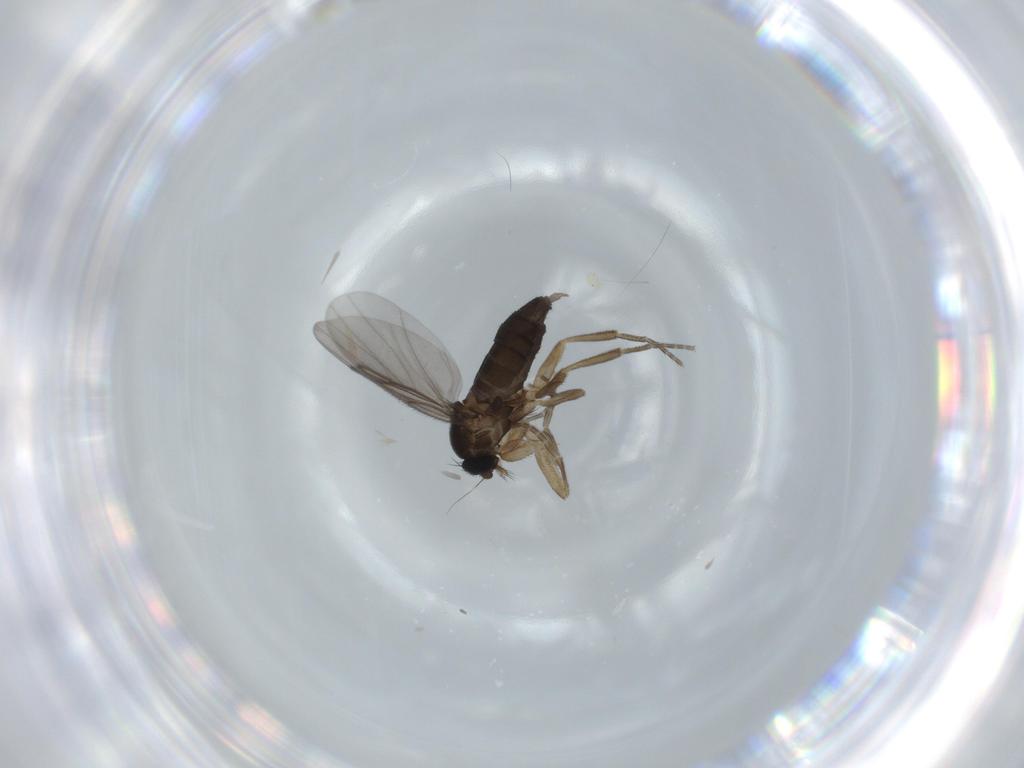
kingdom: Animalia
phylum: Arthropoda
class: Insecta
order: Diptera
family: Phoridae
